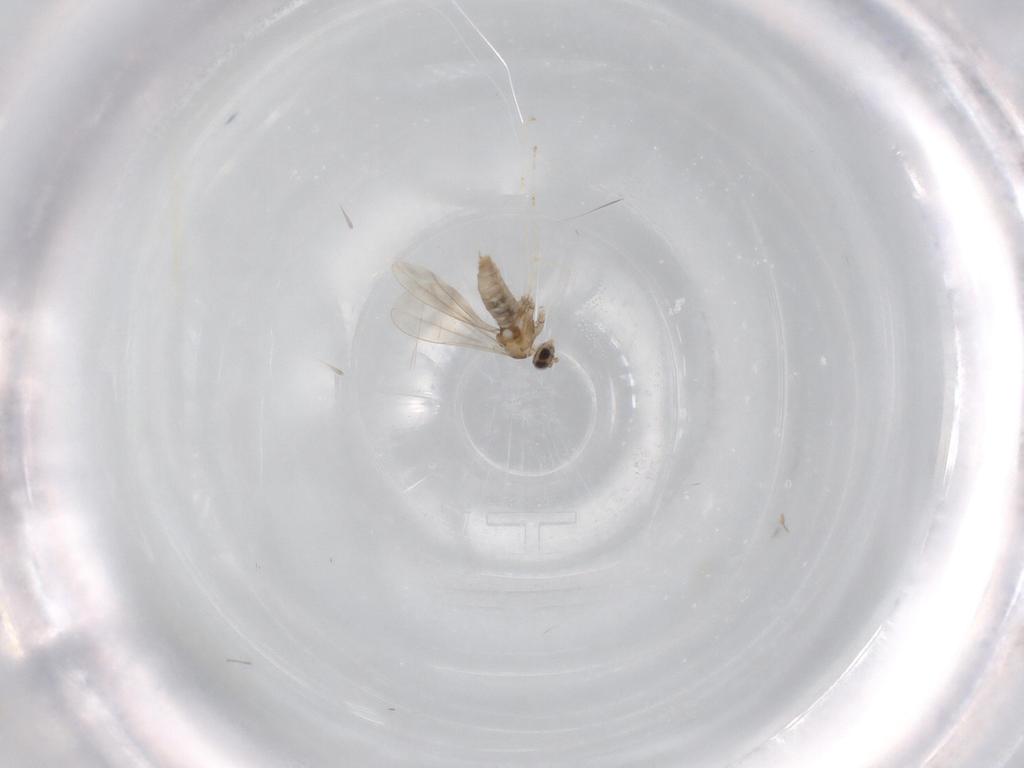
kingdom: Animalia
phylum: Arthropoda
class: Insecta
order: Diptera
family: Cecidomyiidae
